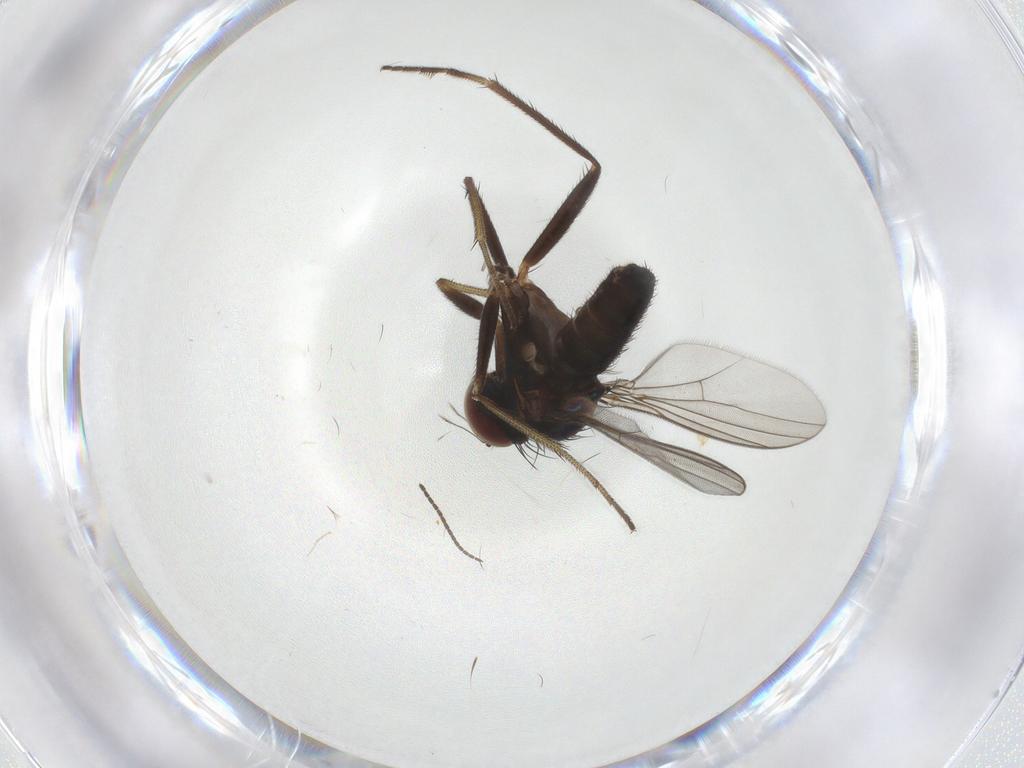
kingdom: Animalia
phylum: Arthropoda
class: Insecta
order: Diptera
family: Sciaridae
